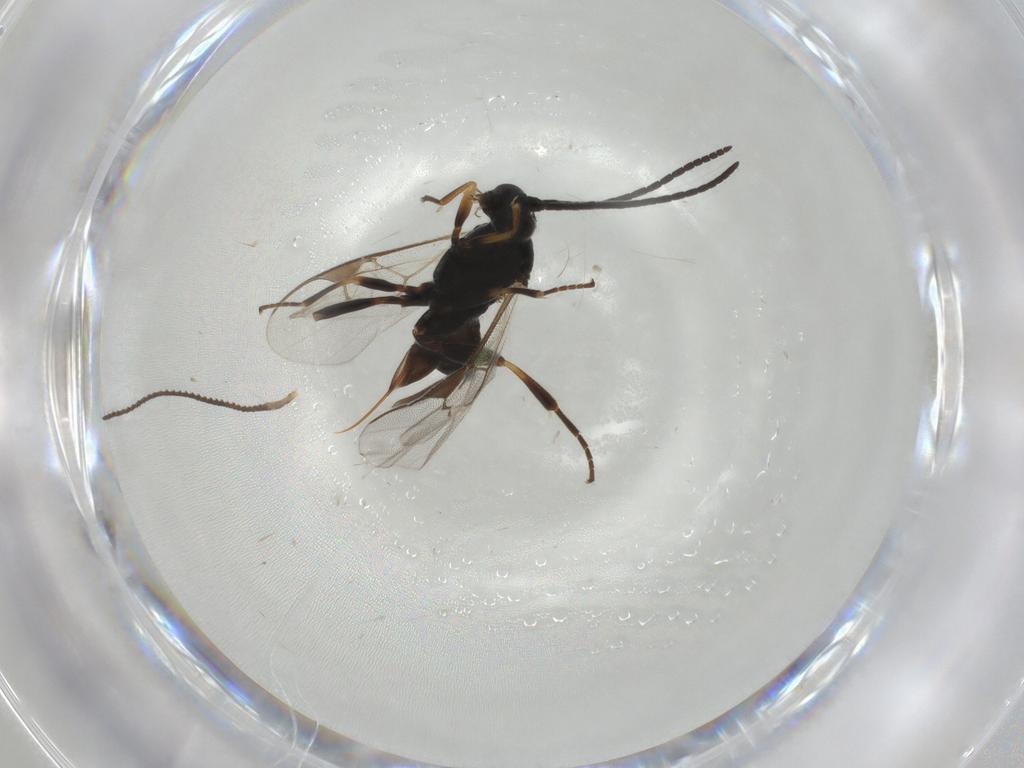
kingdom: Animalia
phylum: Arthropoda
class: Insecta
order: Hymenoptera
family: Braconidae
